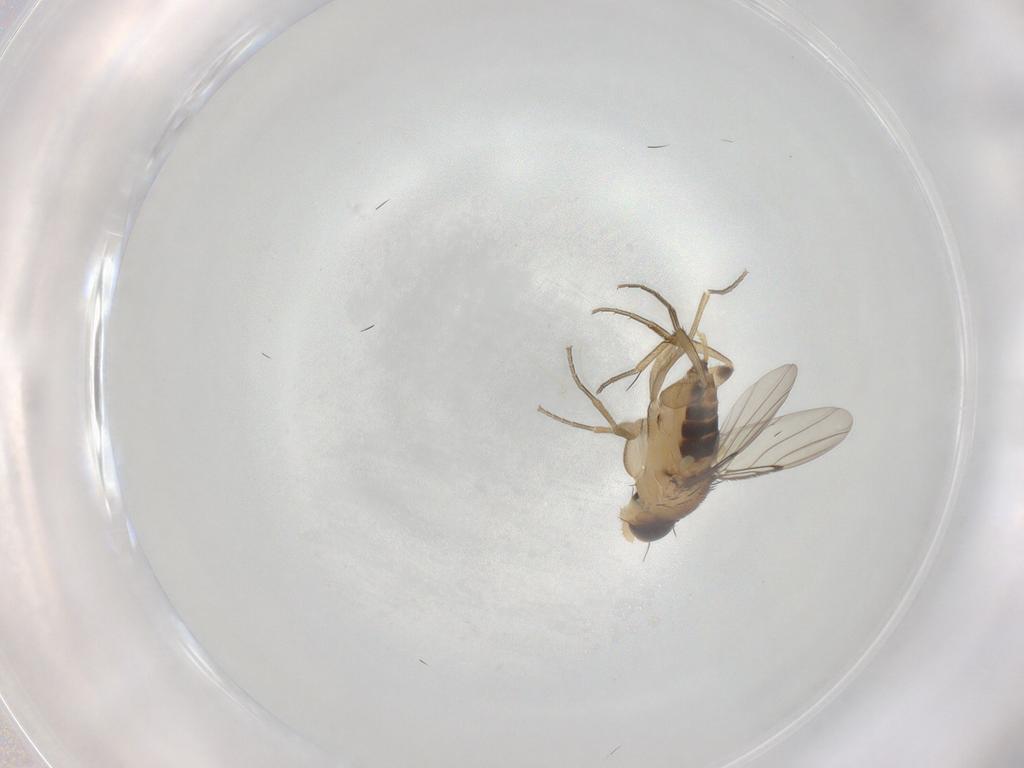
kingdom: Animalia
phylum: Arthropoda
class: Insecta
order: Diptera
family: Phoridae
